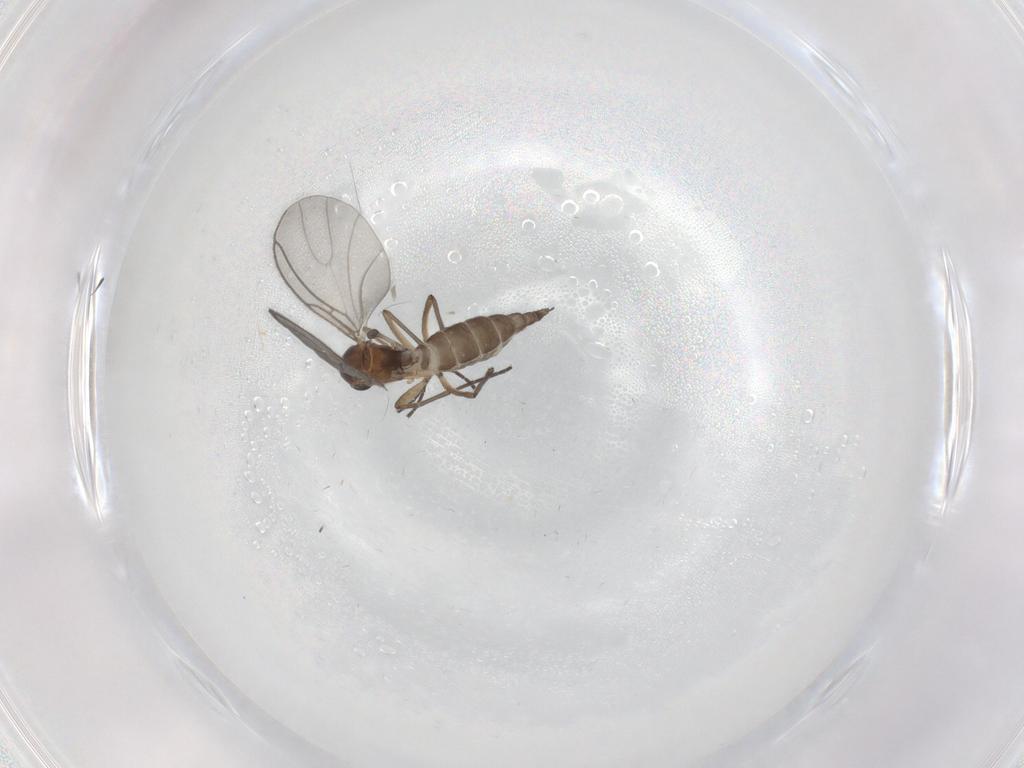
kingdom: Animalia
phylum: Arthropoda
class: Insecta
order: Diptera
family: Sciaridae
